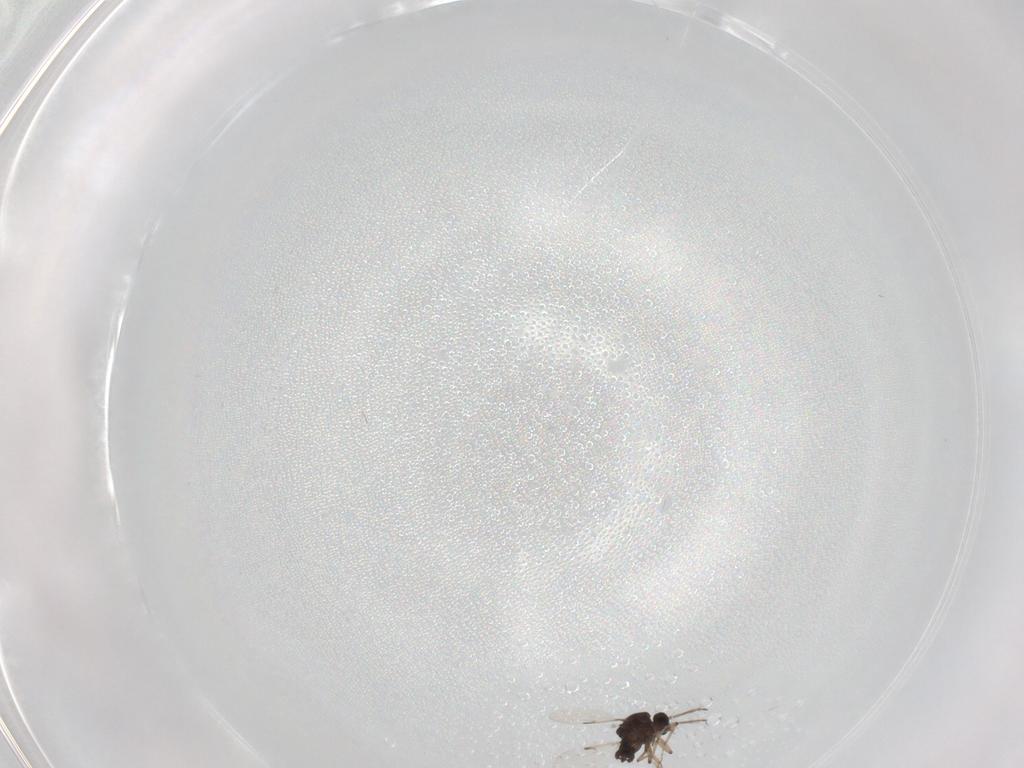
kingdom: Animalia
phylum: Arthropoda
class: Insecta
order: Diptera
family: Ceratopogonidae
